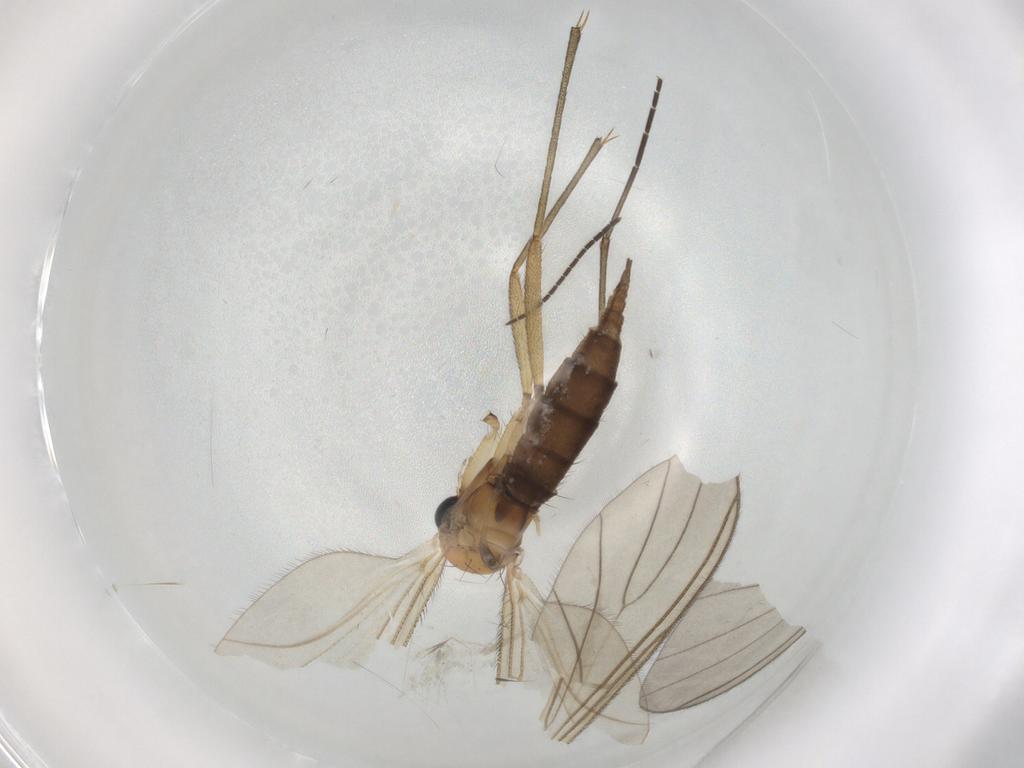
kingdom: Animalia
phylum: Arthropoda
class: Insecta
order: Diptera
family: Sciaridae
